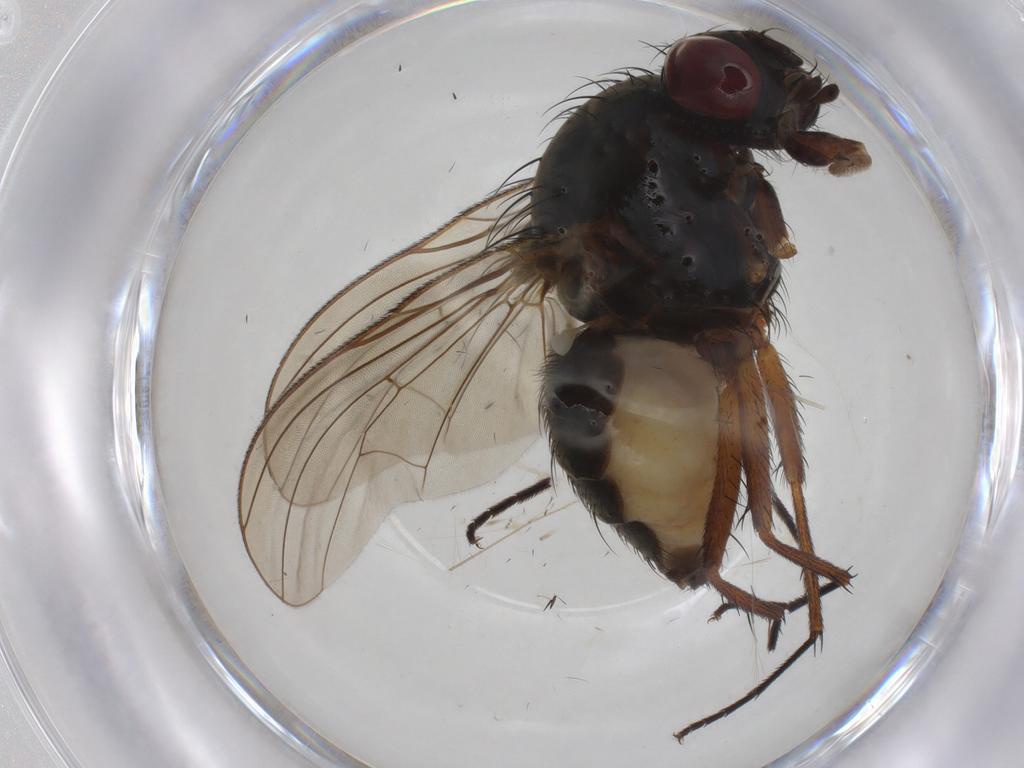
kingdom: Animalia
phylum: Arthropoda
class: Insecta
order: Diptera
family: Anthomyiidae
